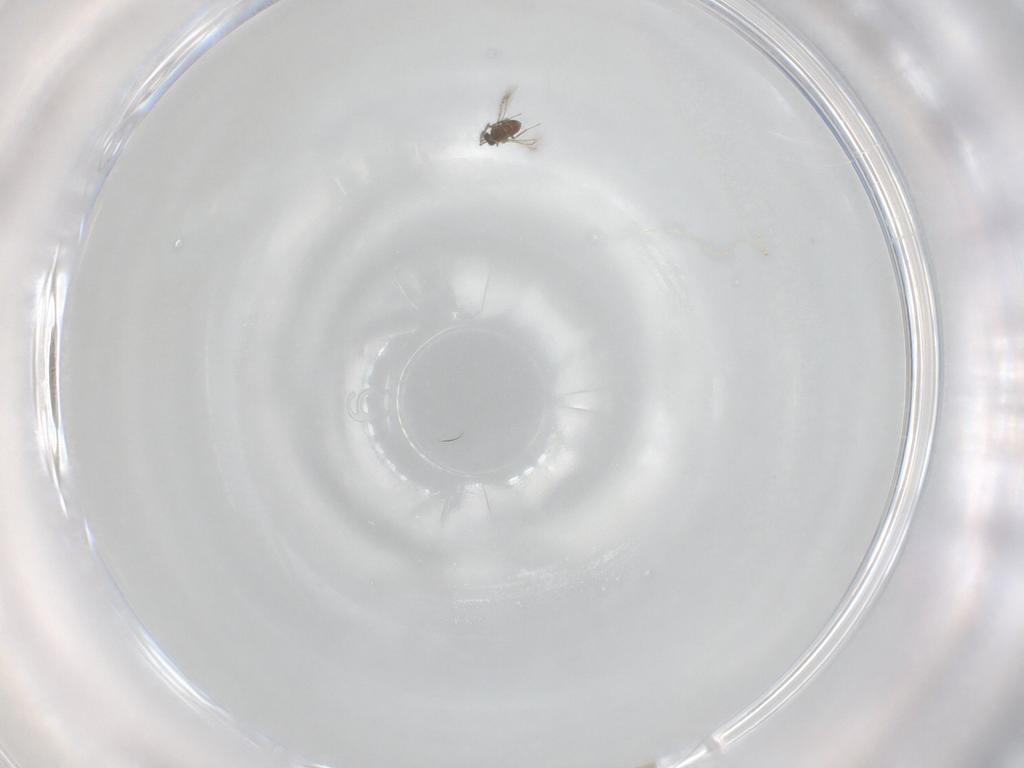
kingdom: Animalia
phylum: Arthropoda
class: Insecta
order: Hymenoptera
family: Mymaridae
